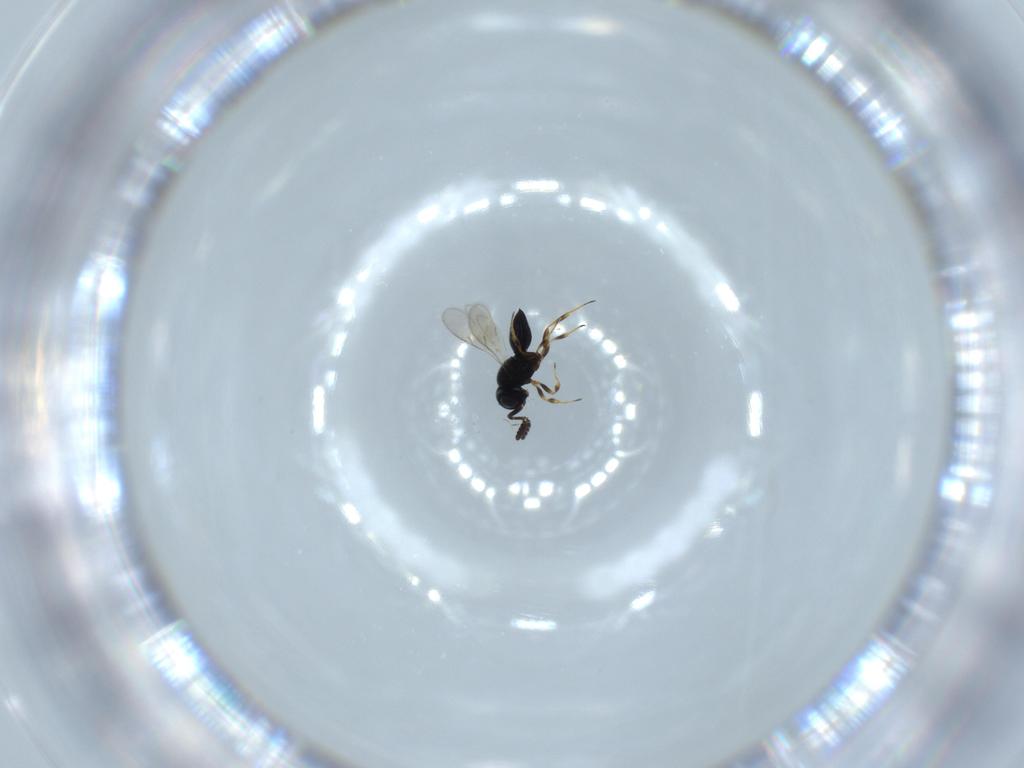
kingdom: Animalia
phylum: Arthropoda
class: Insecta
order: Hymenoptera
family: Scelionidae
